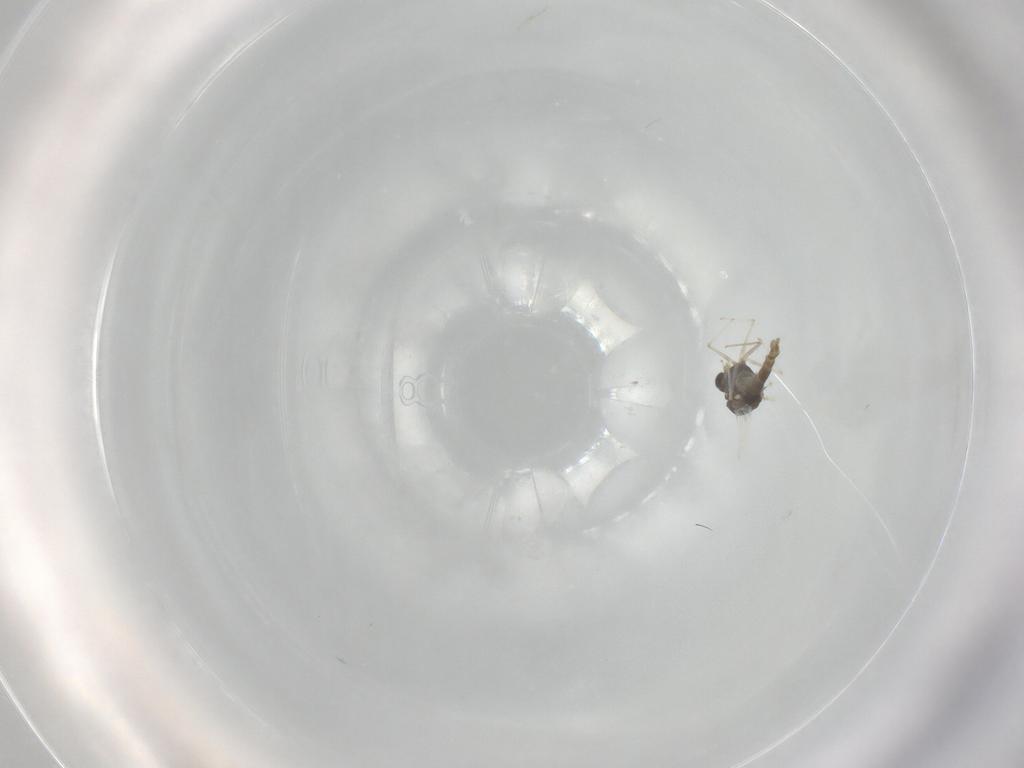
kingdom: Animalia
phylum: Arthropoda
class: Insecta
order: Diptera
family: Chironomidae
